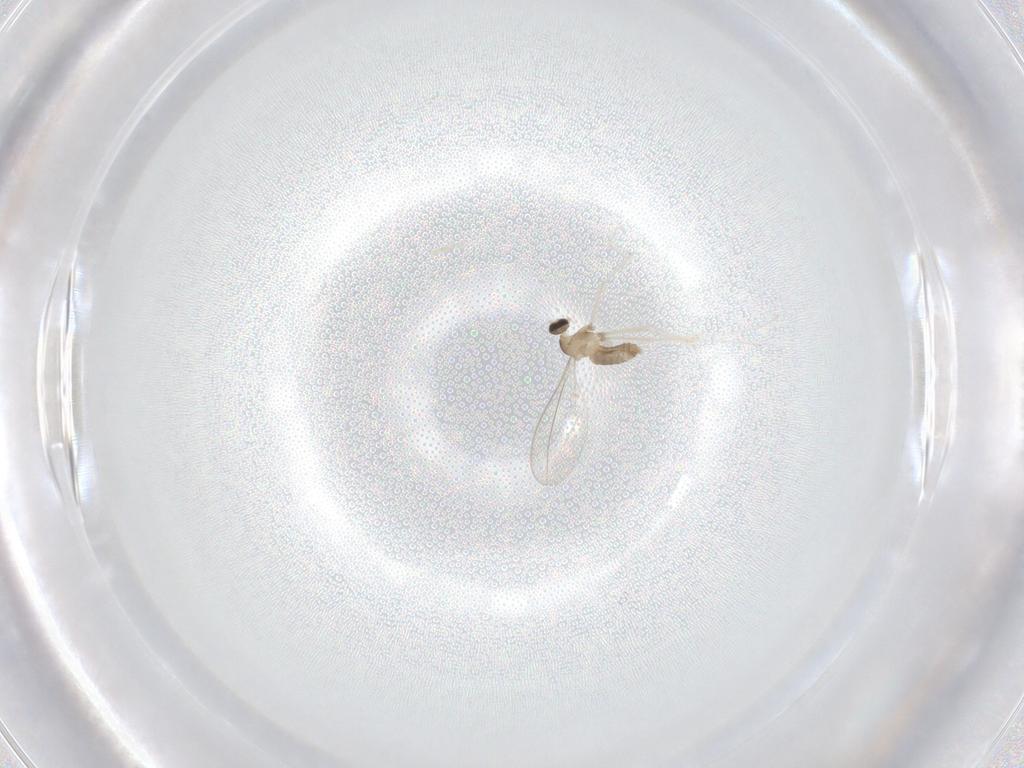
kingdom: Animalia
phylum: Arthropoda
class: Insecta
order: Diptera
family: Cecidomyiidae
